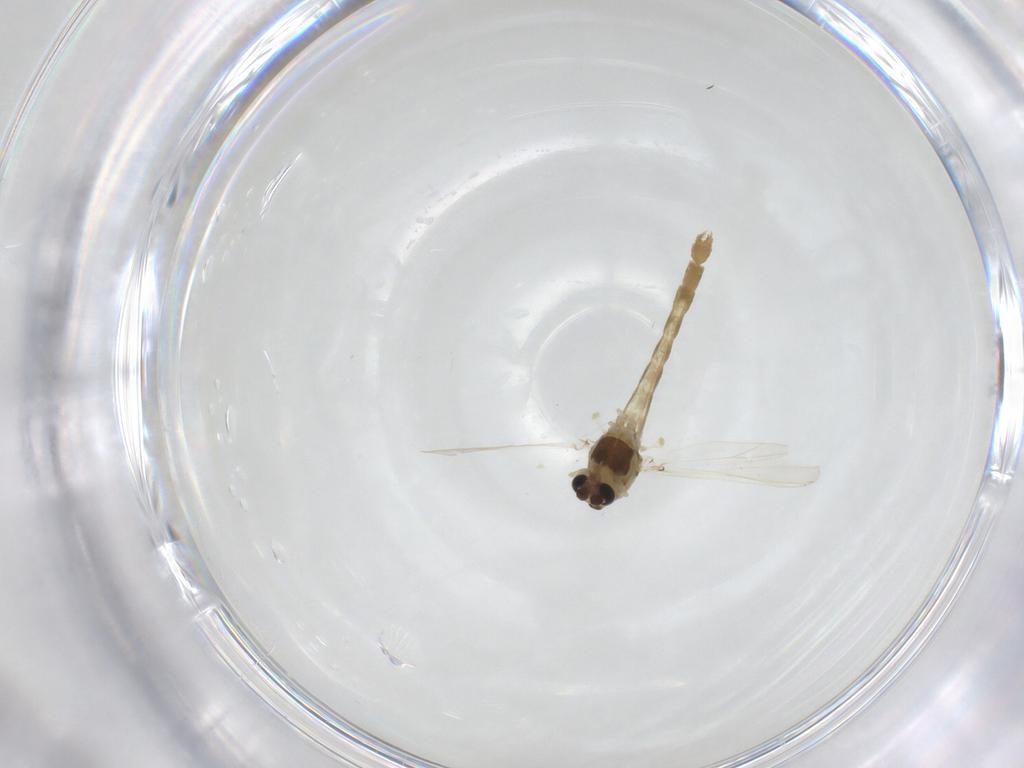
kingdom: Animalia
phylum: Arthropoda
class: Insecta
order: Diptera
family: Chironomidae
